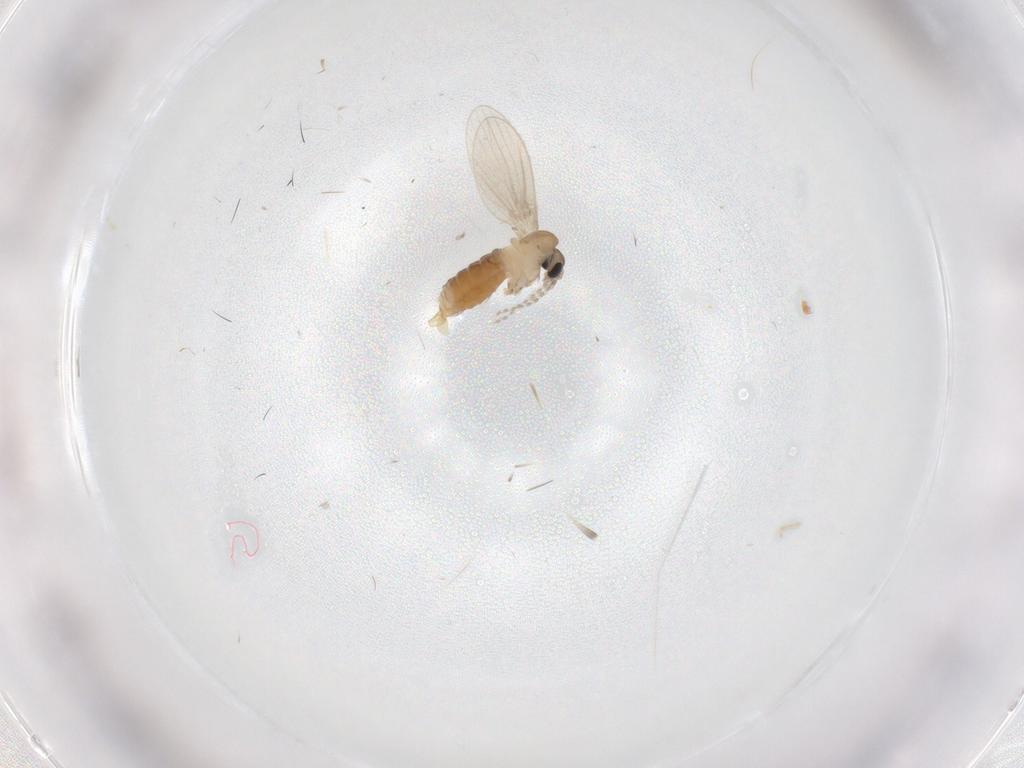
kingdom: Animalia
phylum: Arthropoda
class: Insecta
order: Diptera
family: Psychodidae
